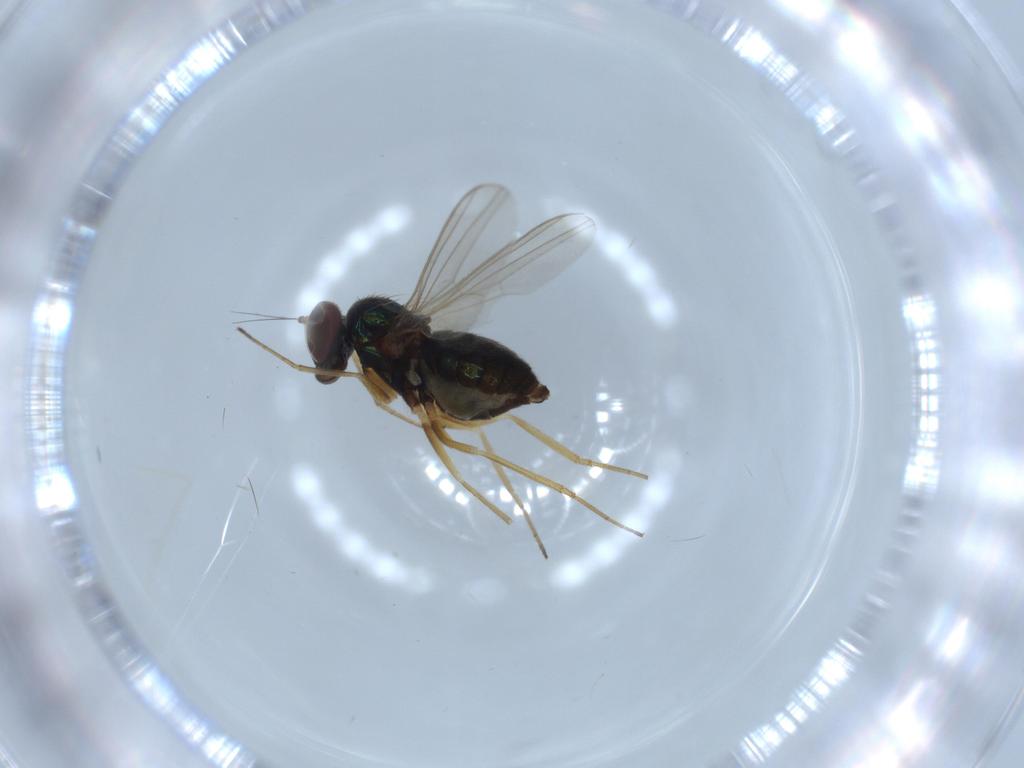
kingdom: Animalia
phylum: Arthropoda
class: Insecta
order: Diptera
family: Dolichopodidae
